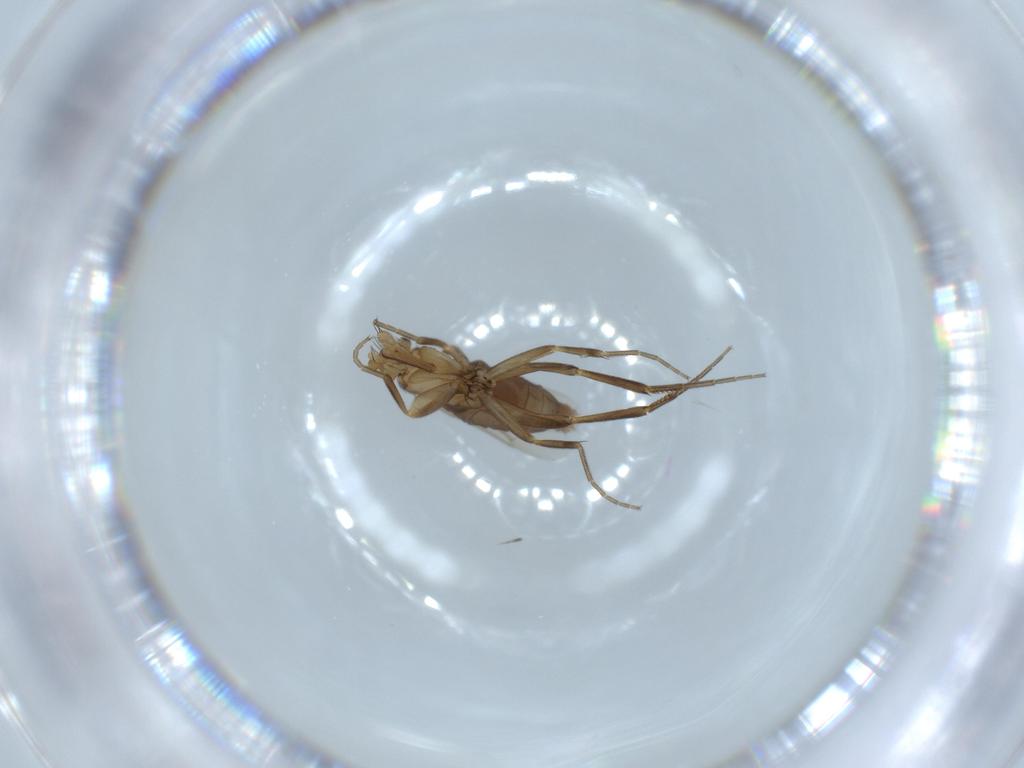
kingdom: Animalia
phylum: Arthropoda
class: Insecta
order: Diptera
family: Phoridae
